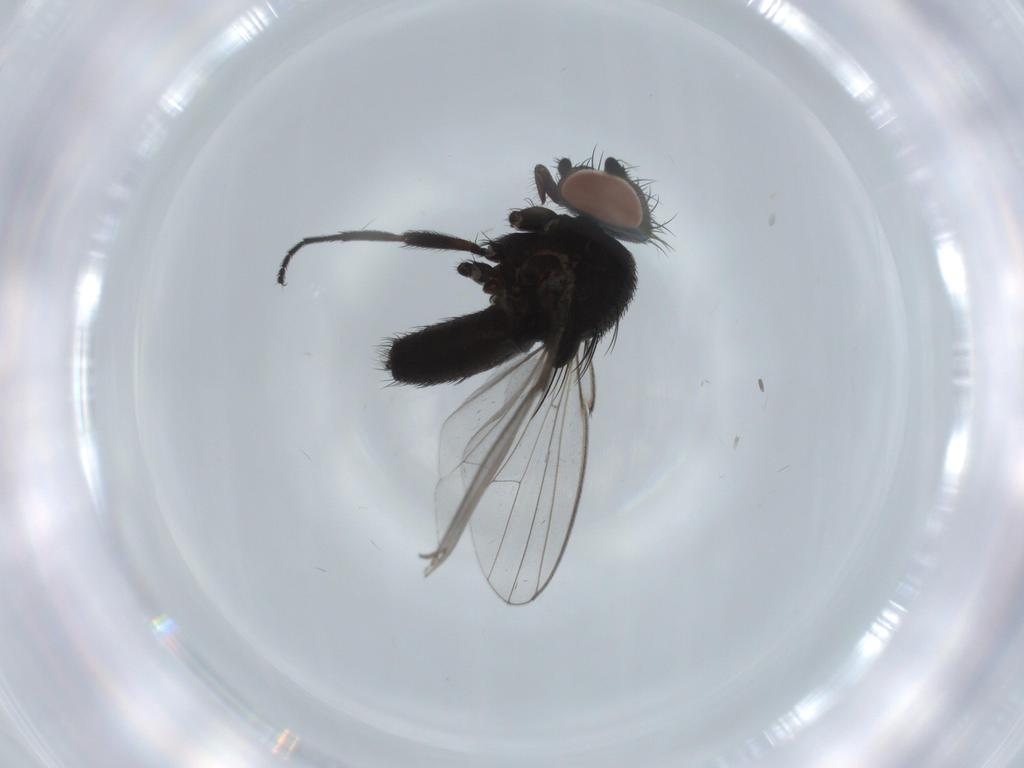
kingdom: Animalia
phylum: Arthropoda
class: Insecta
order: Diptera
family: Milichiidae
